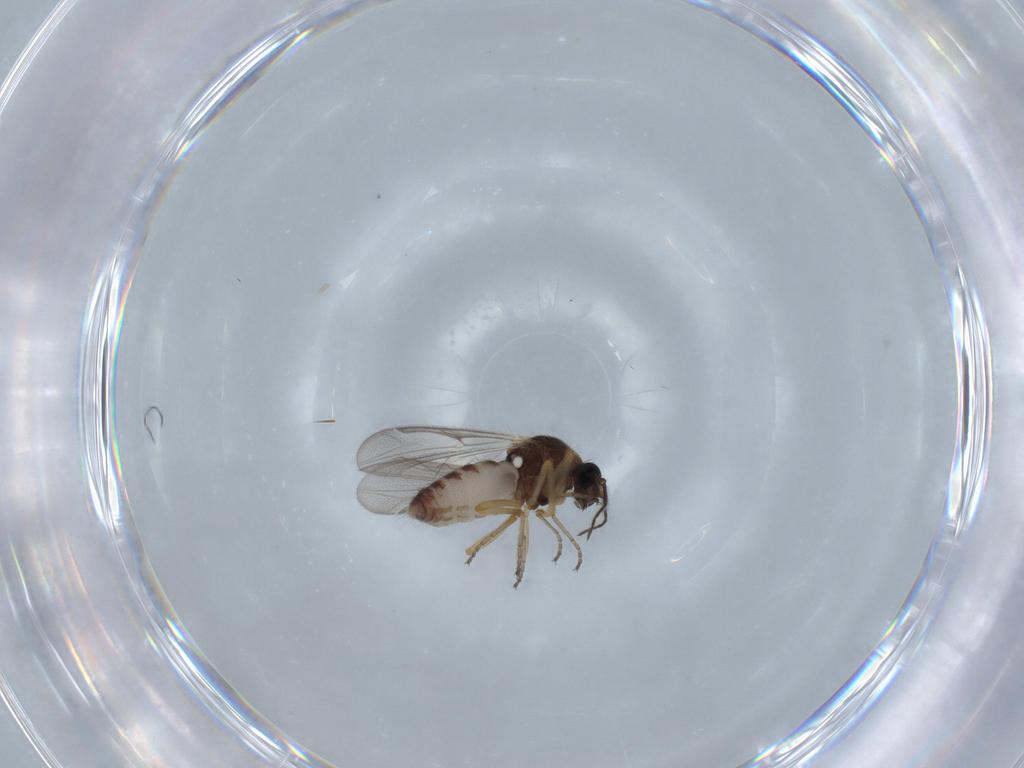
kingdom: Animalia
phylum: Arthropoda
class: Insecta
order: Diptera
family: Ceratopogonidae
